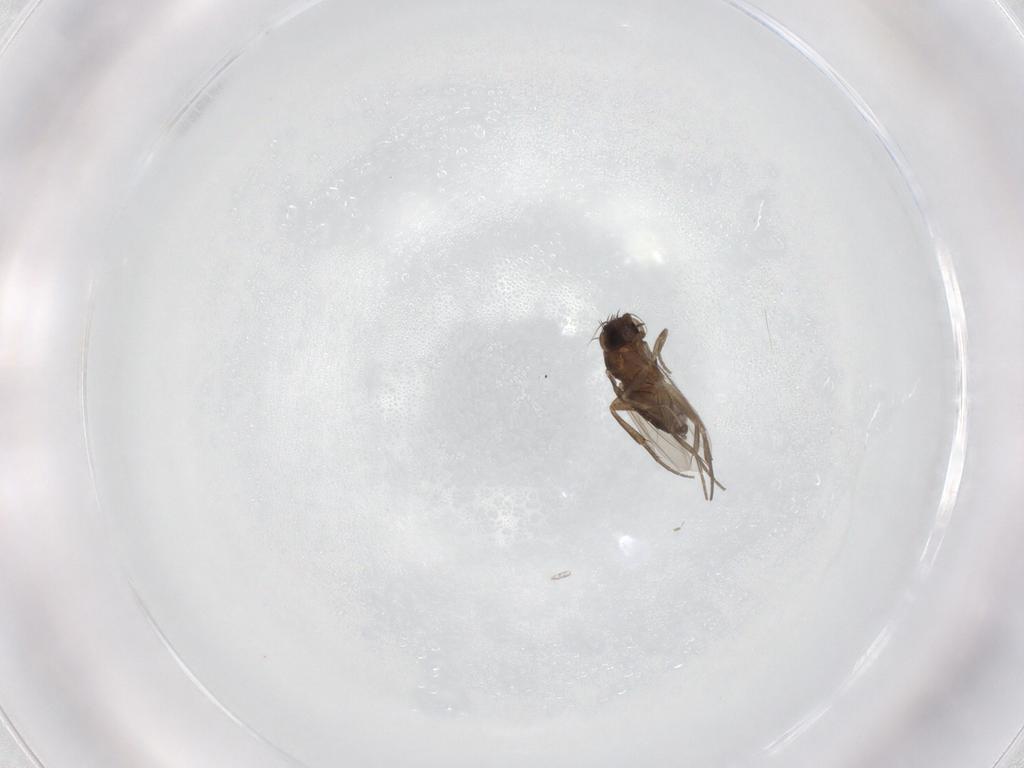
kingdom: Animalia
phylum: Arthropoda
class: Insecta
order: Diptera
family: Phoridae
